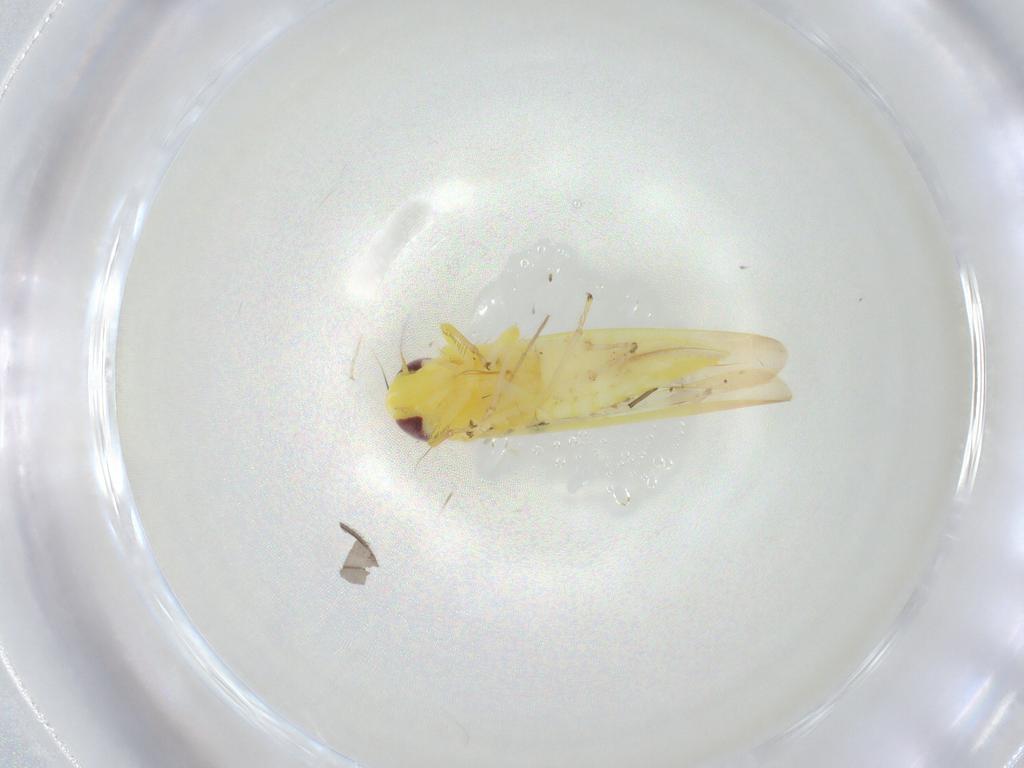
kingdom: Animalia
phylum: Arthropoda
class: Insecta
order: Hemiptera
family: Cicadellidae
